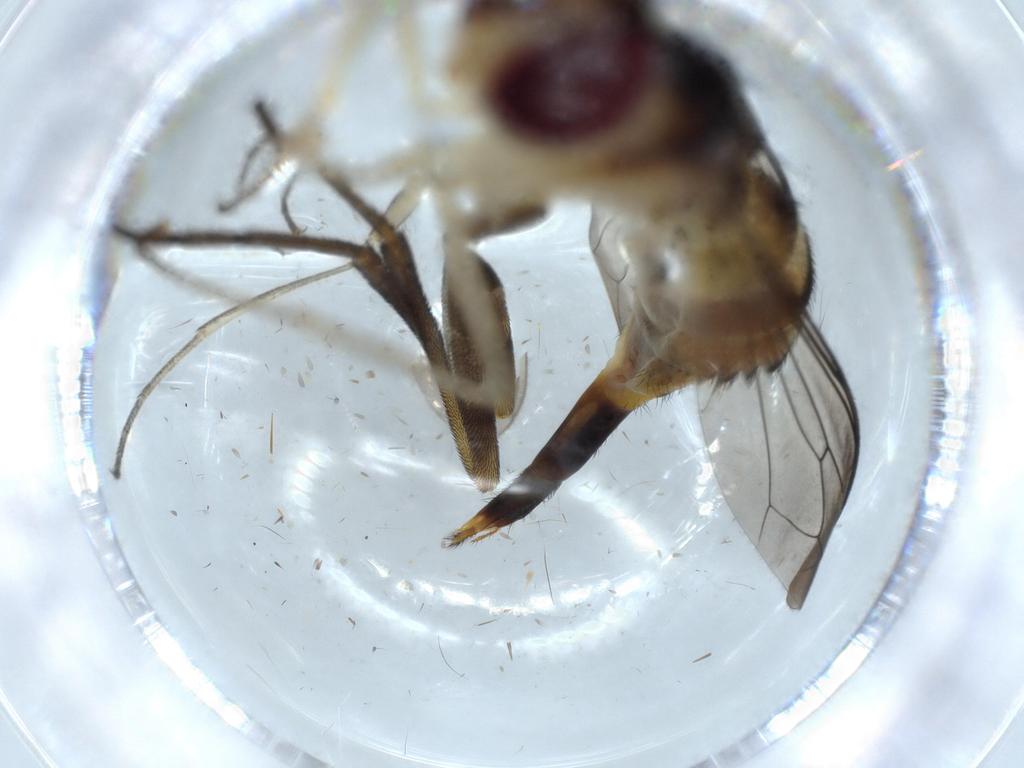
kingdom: Animalia
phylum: Arthropoda
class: Insecta
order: Diptera
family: Conopidae
